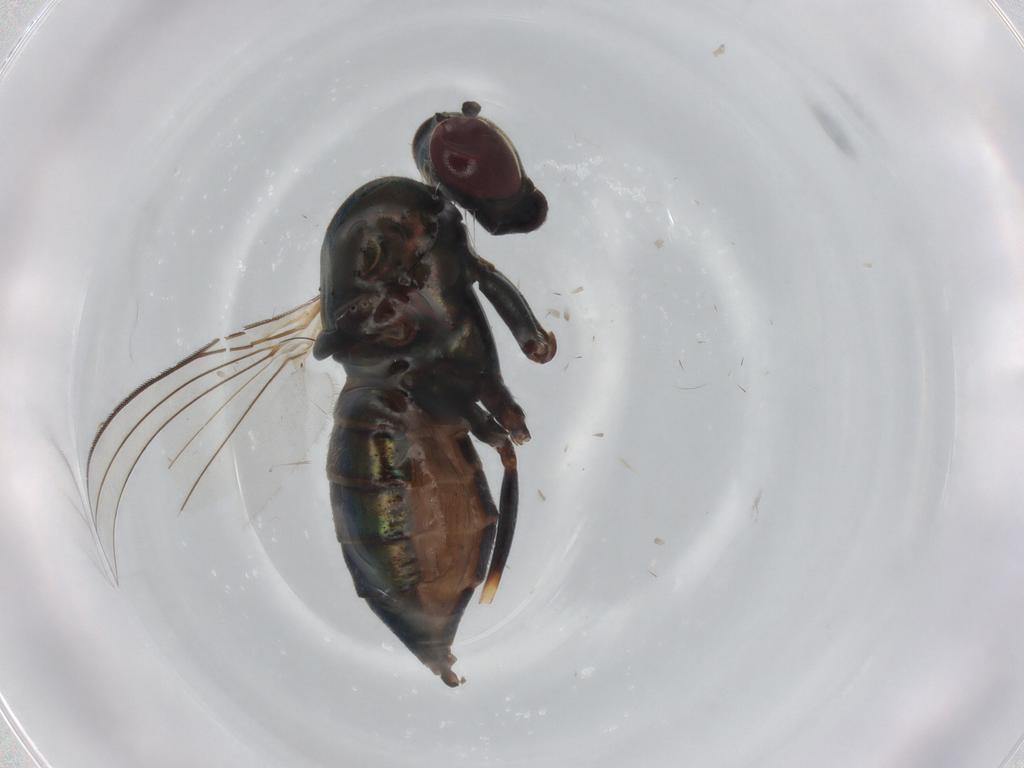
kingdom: Animalia
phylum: Arthropoda
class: Insecta
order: Diptera
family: Dolichopodidae
